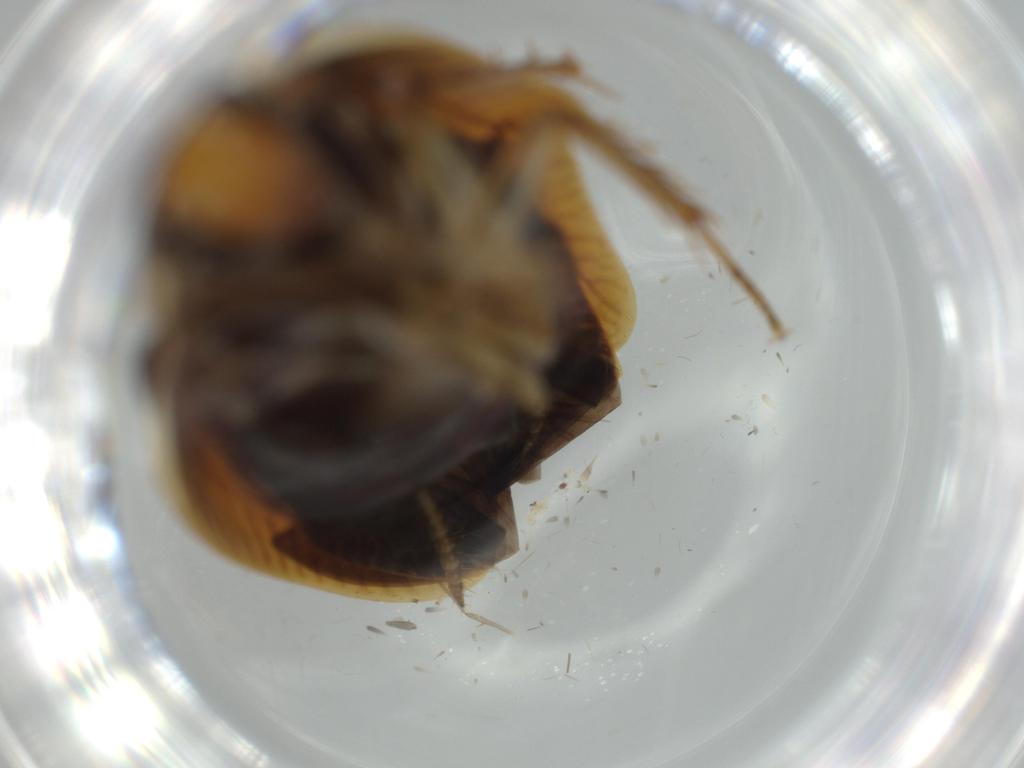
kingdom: Animalia
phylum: Arthropoda
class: Insecta
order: Blattodea
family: Ectobiidae
